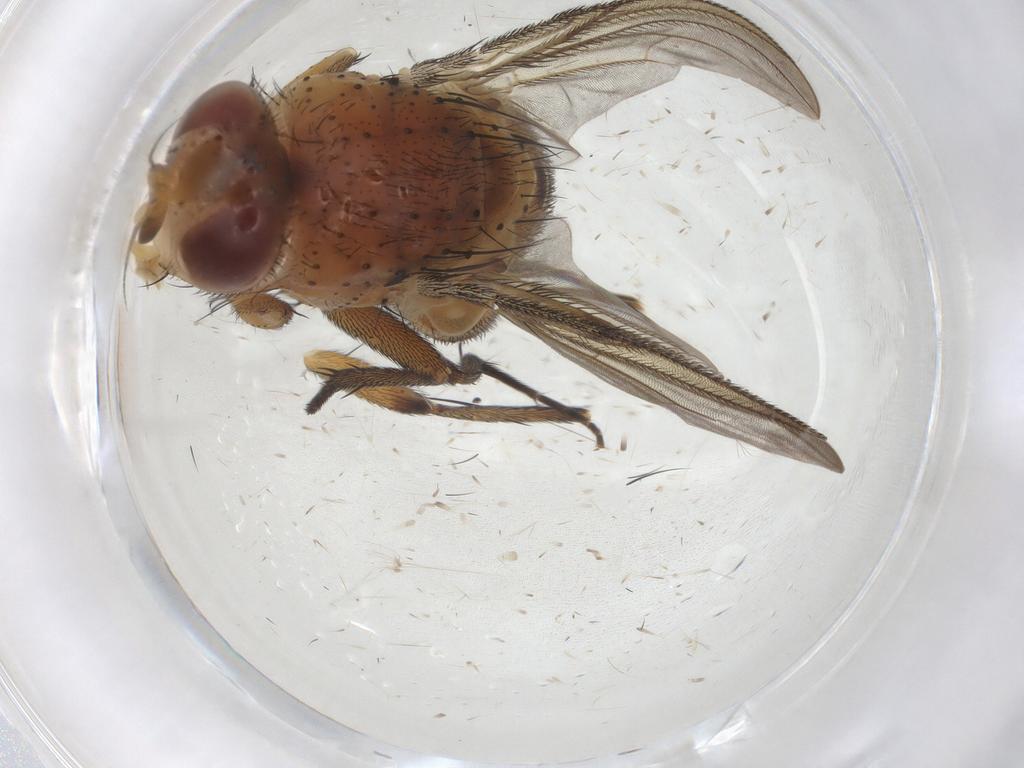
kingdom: Animalia
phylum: Arthropoda
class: Insecta
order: Diptera
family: Tachinidae
